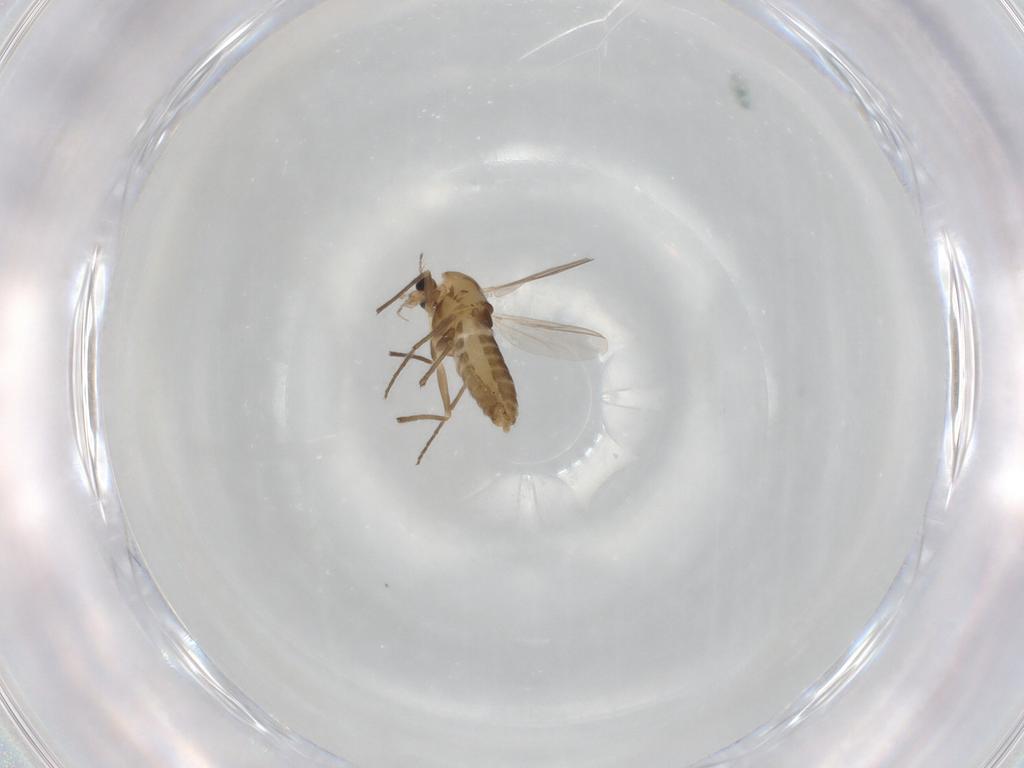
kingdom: Animalia
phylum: Arthropoda
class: Insecta
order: Diptera
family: Chironomidae
